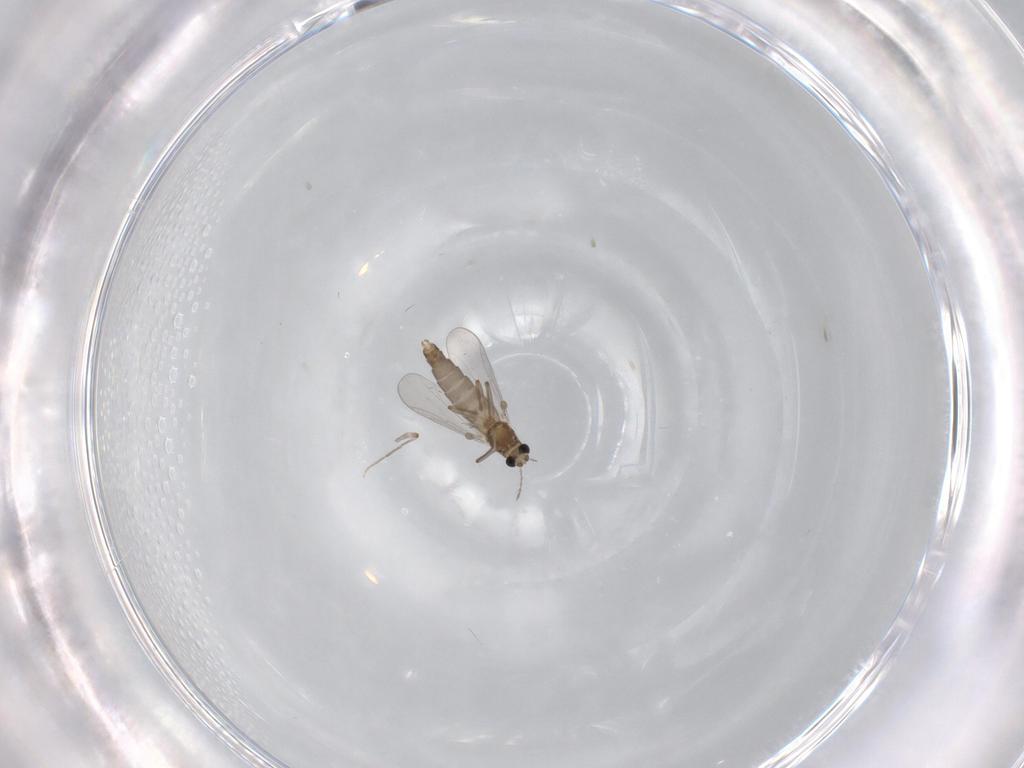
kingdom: Animalia
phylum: Arthropoda
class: Insecta
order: Diptera
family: Chironomidae
